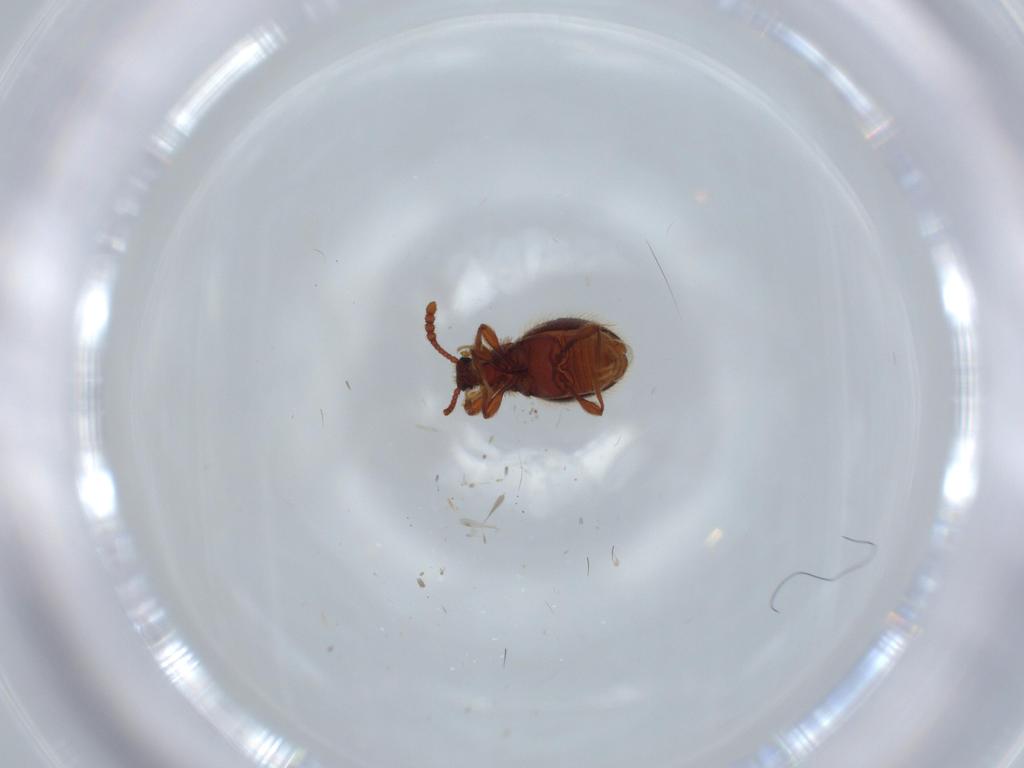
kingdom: Animalia
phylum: Arthropoda
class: Insecta
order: Coleoptera
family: Staphylinidae
